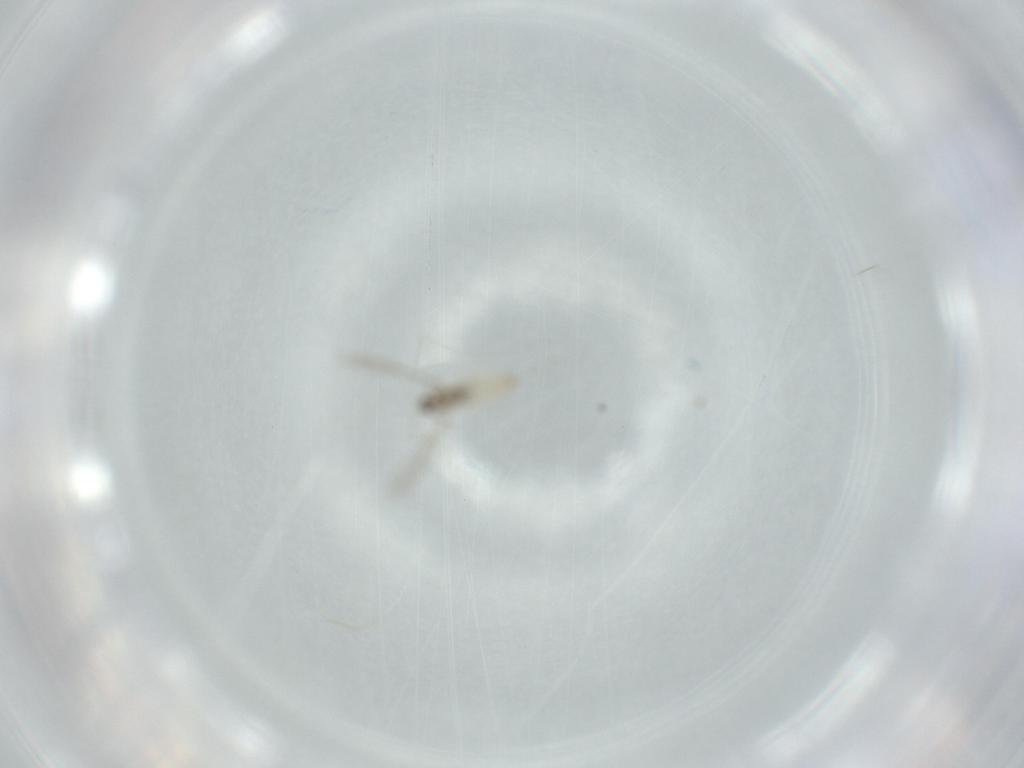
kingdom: Animalia
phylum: Arthropoda
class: Insecta
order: Diptera
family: Cecidomyiidae
